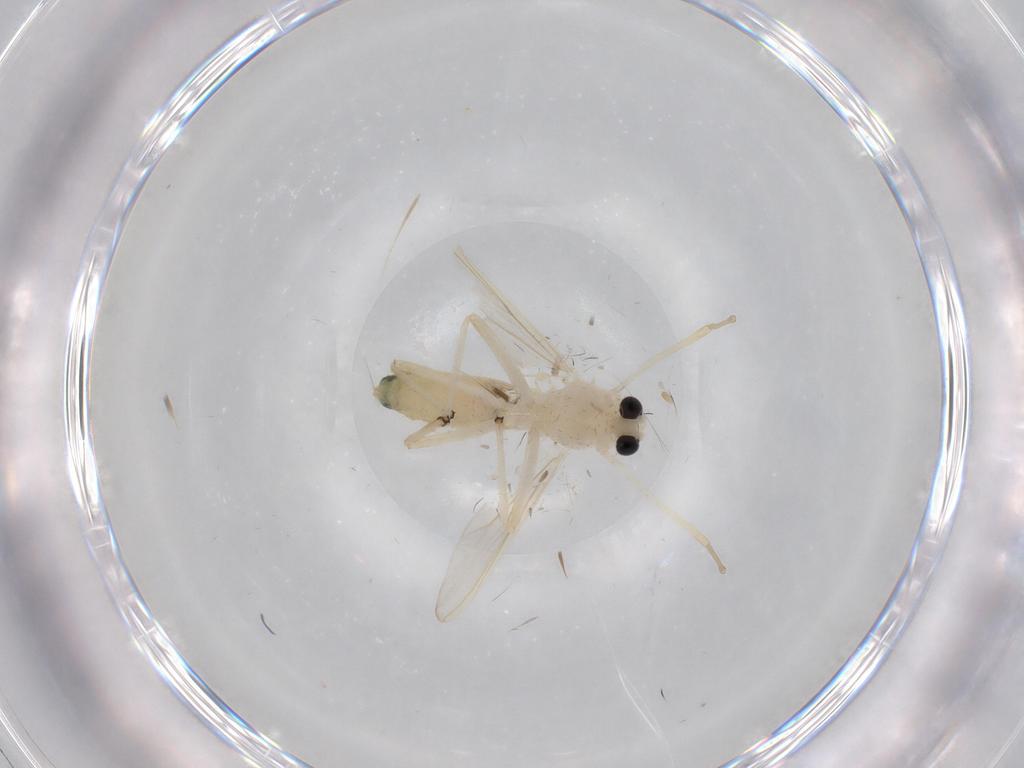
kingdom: Animalia
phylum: Arthropoda
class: Insecta
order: Diptera
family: Chironomidae
